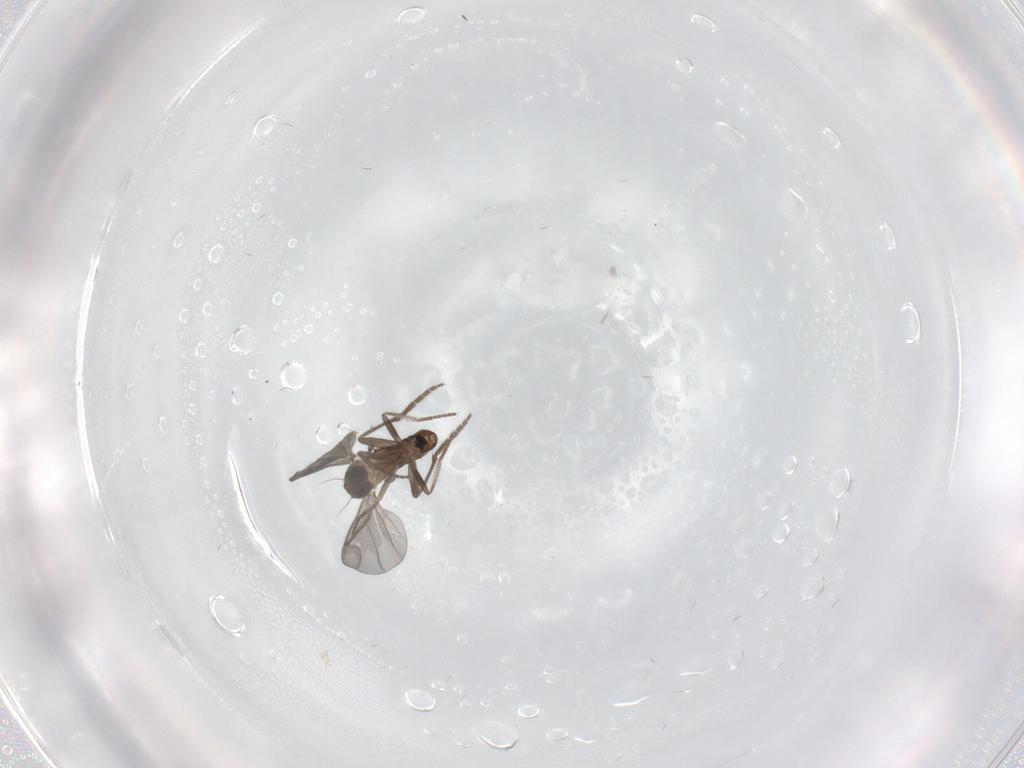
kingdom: Animalia
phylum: Arthropoda
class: Insecta
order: Diptera
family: Phoridae
